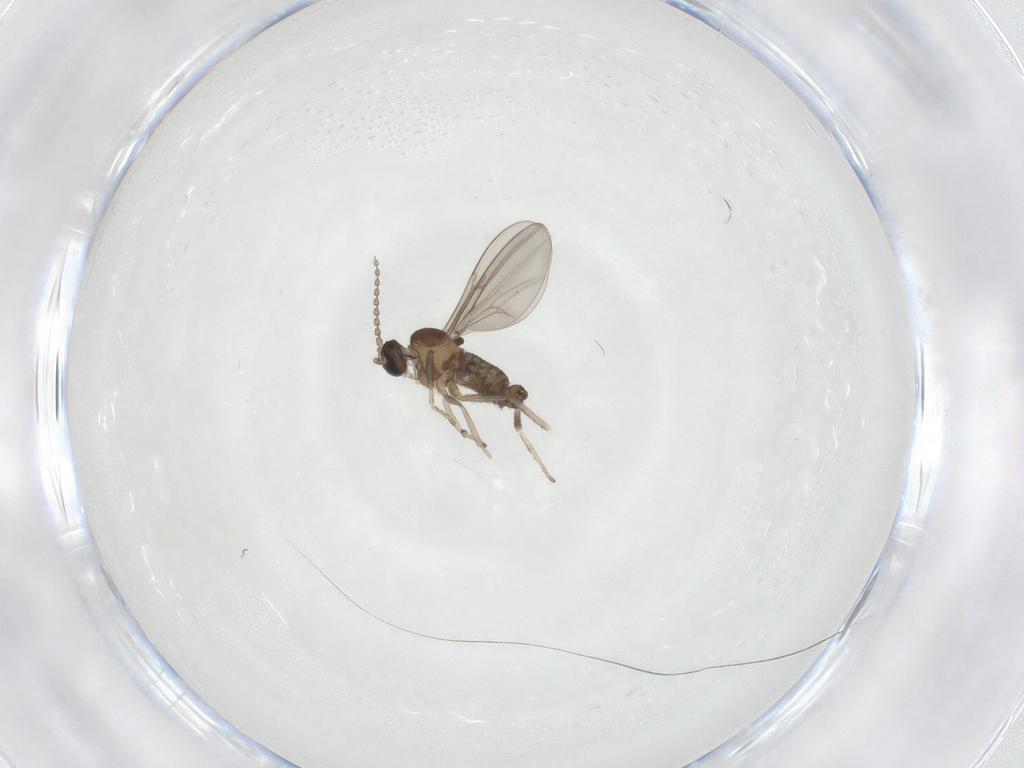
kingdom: Animalia
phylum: Arthropoda
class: Insecta
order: Diptera
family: Cecidomyiidae
